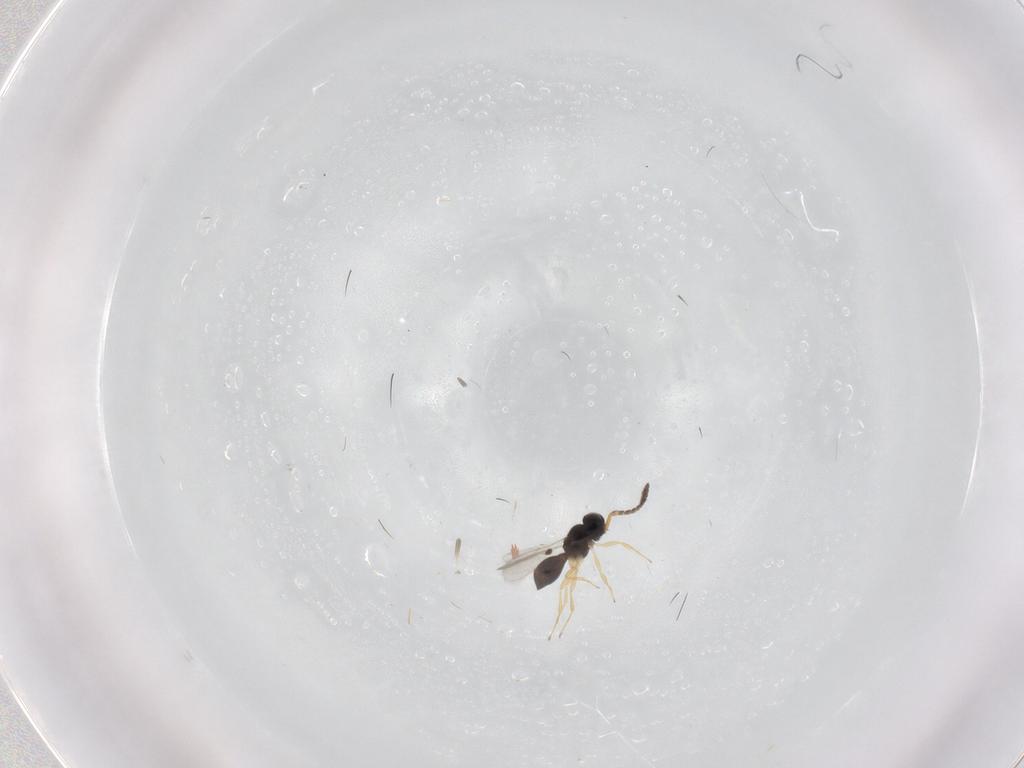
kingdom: Animalia
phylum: Arthropoda
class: Insecta
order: Hymenoptera
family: Scelionidae
